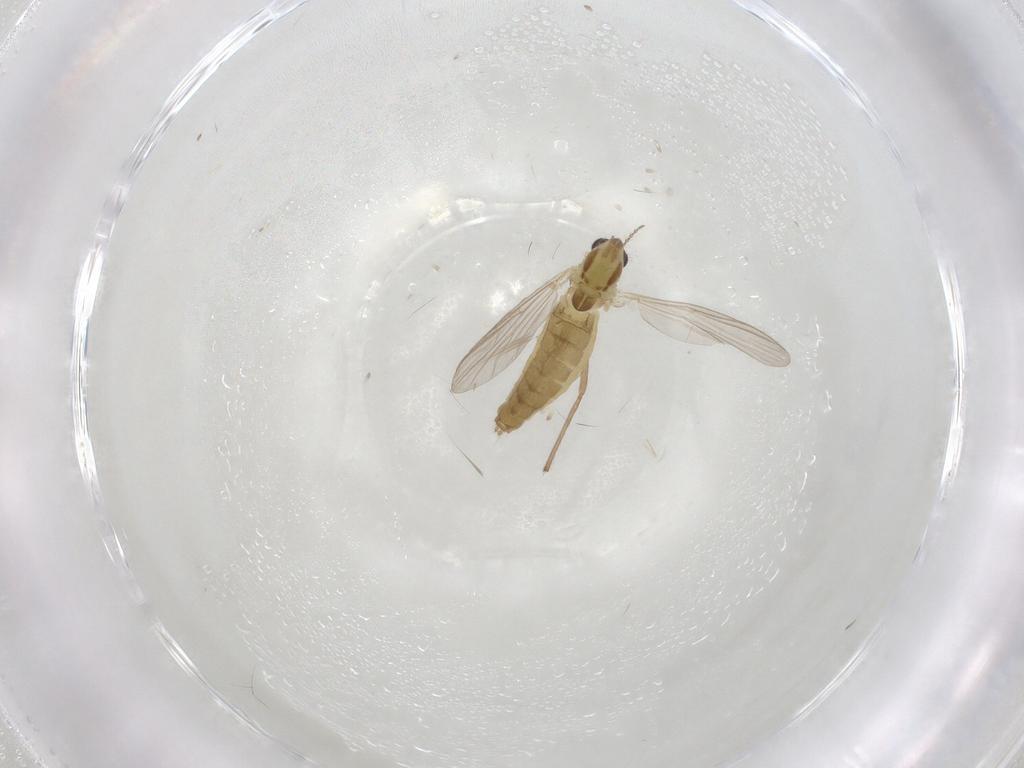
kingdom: Animalia
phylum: Arthropoda
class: Insecta
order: Diptera
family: Chironomidae
